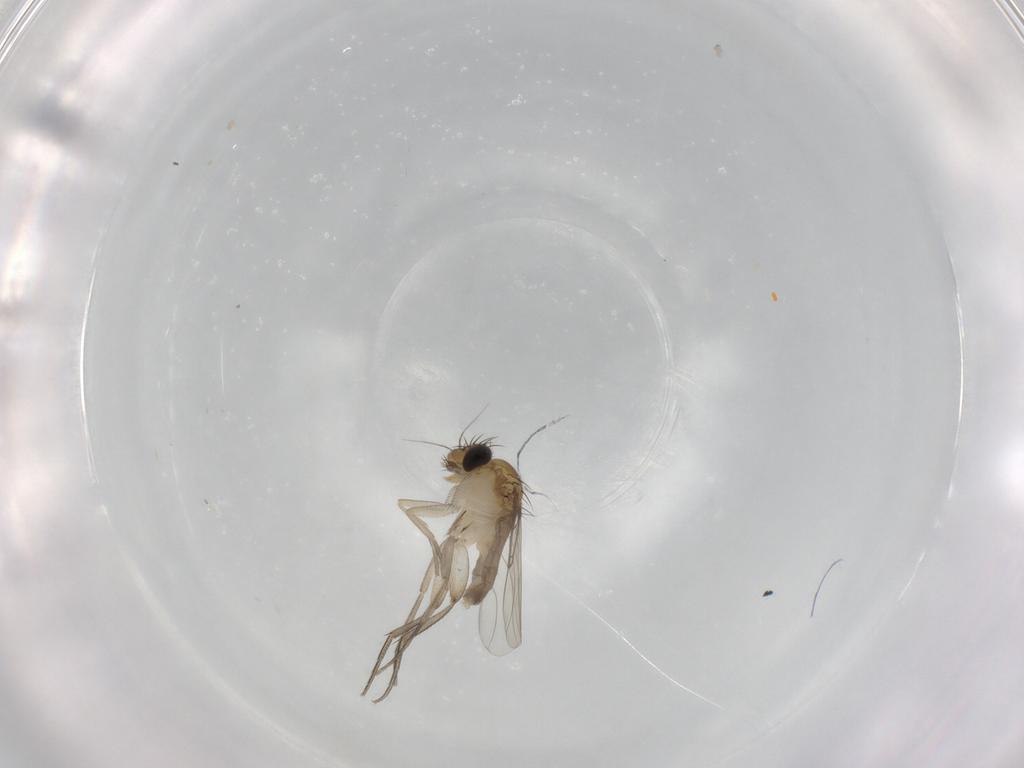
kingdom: Animalia
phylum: Arthropoda
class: Insecta
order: Diptera
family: Phoridae
